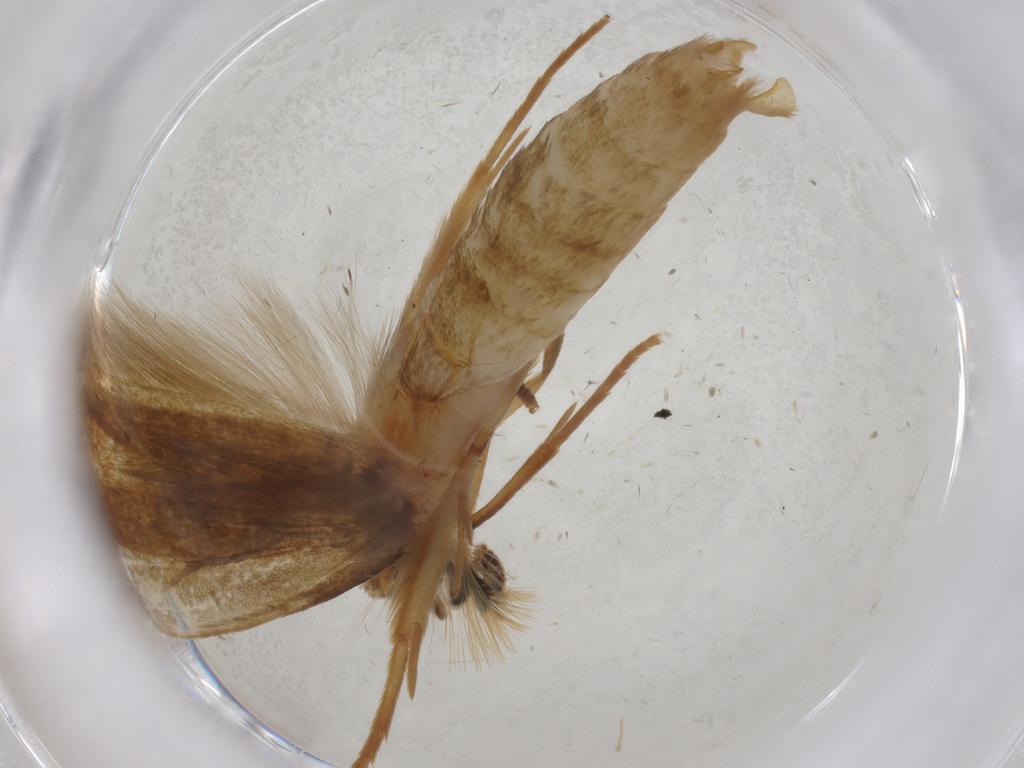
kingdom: Animalia
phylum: Arthropoda
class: Insecta
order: Lepidoptera
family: Tineidae
